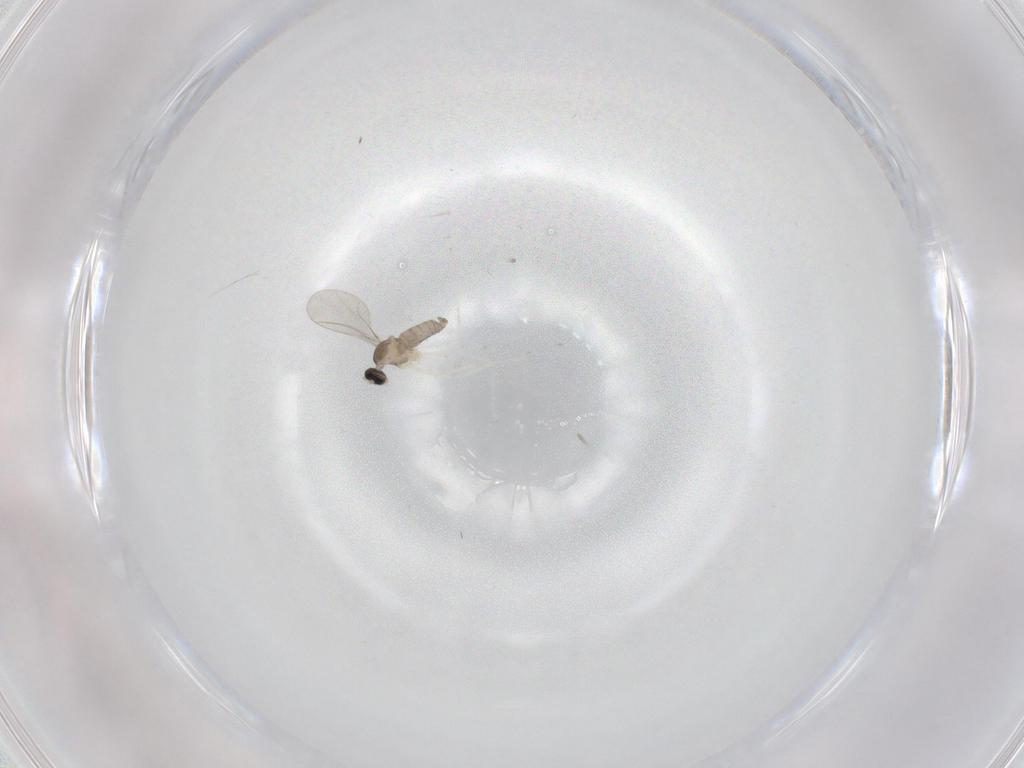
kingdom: Animalia
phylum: Arthropoda
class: Insecta
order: Diptera
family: Cecidomyiidae
